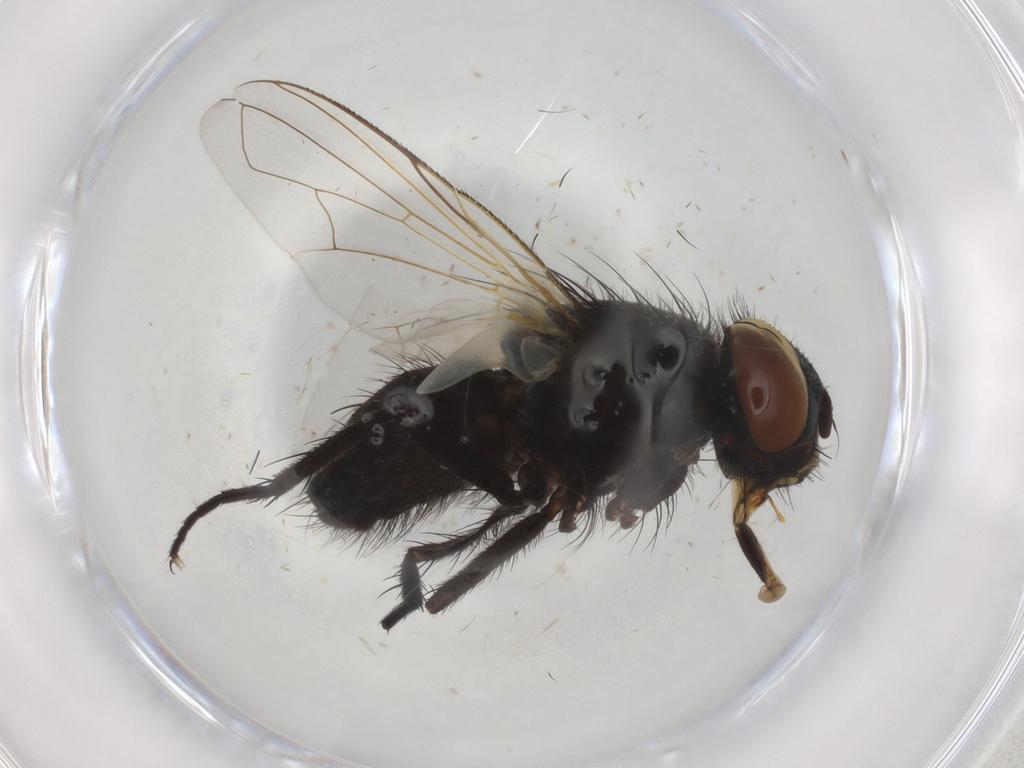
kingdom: Animalia
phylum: Arthropoda
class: Insecta
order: Diptera
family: Tachinidae
